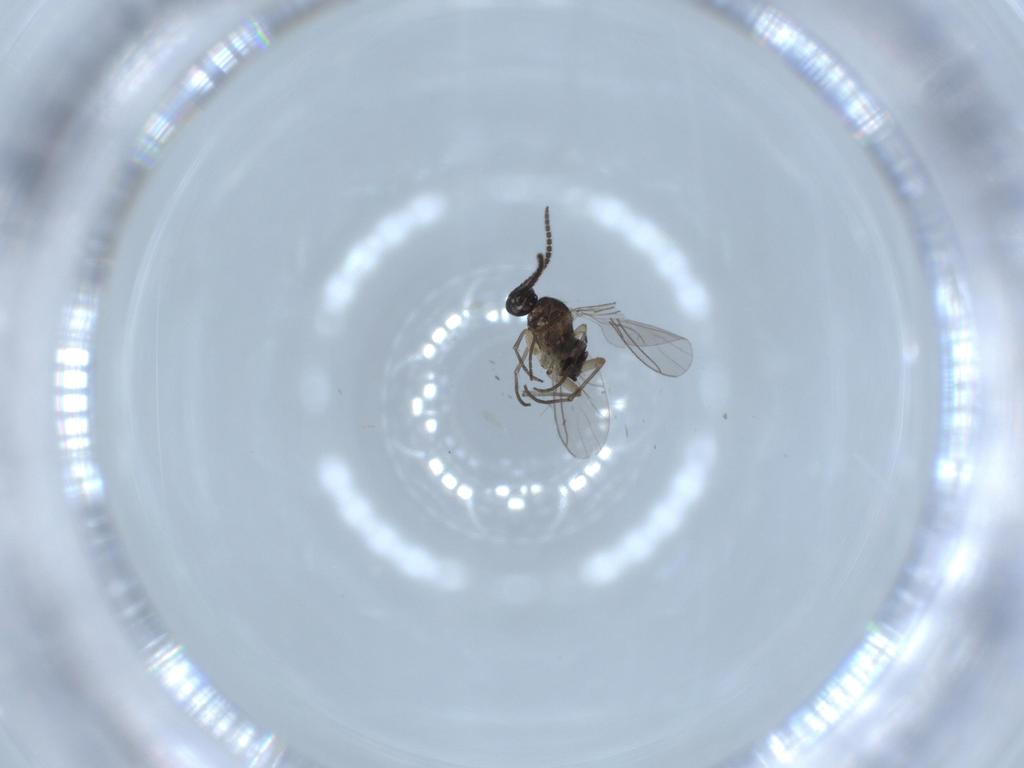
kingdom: Animalia
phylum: Arthropoda
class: Insecta
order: Diptera
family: Sciaridae
